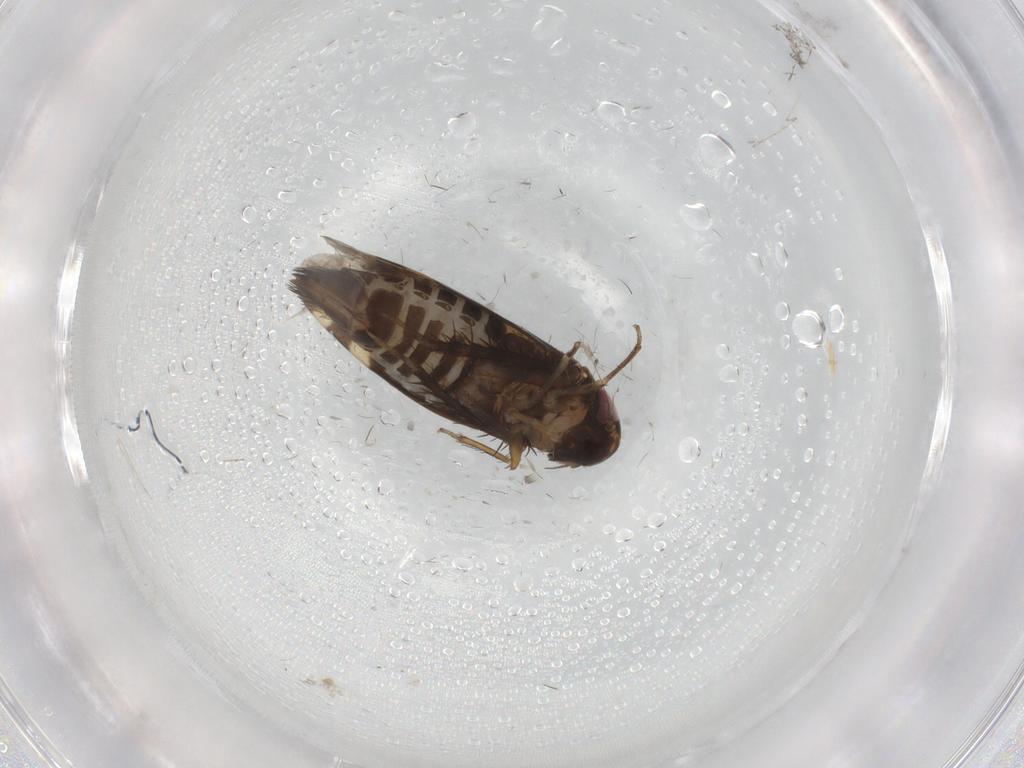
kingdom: Animalia
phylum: Arthropoda
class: Insecta
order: Hemiptera
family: Cicadellidae
